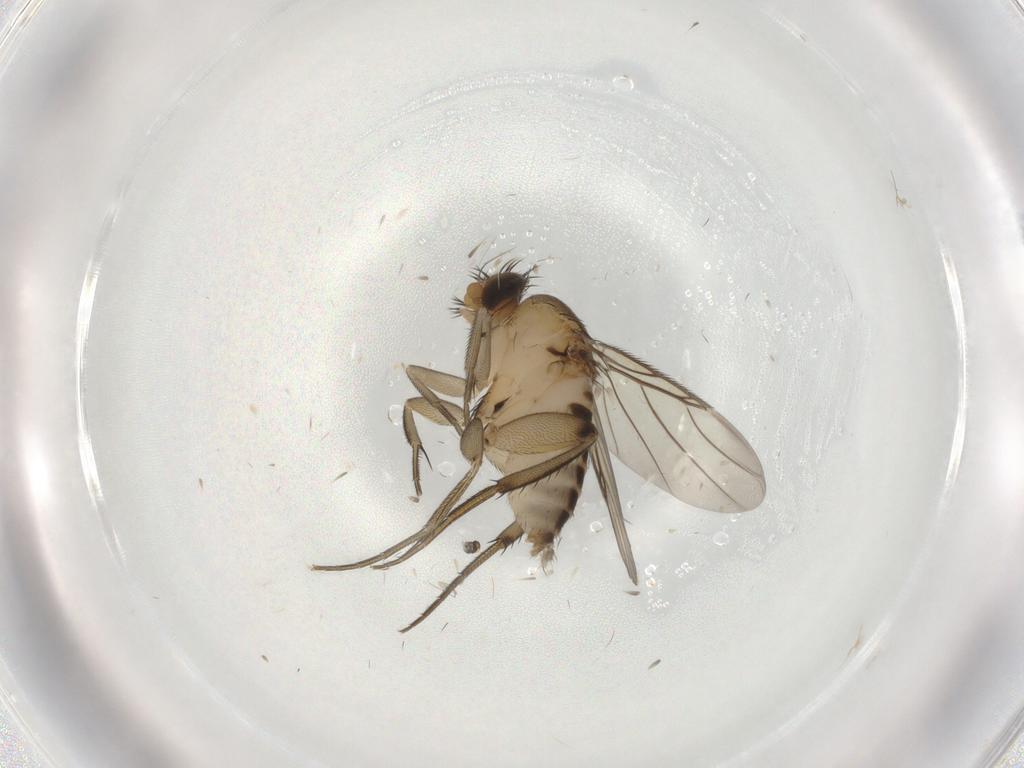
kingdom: Animalia
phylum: Arthropoda
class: Insecta
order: Diptera
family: Phoridae
